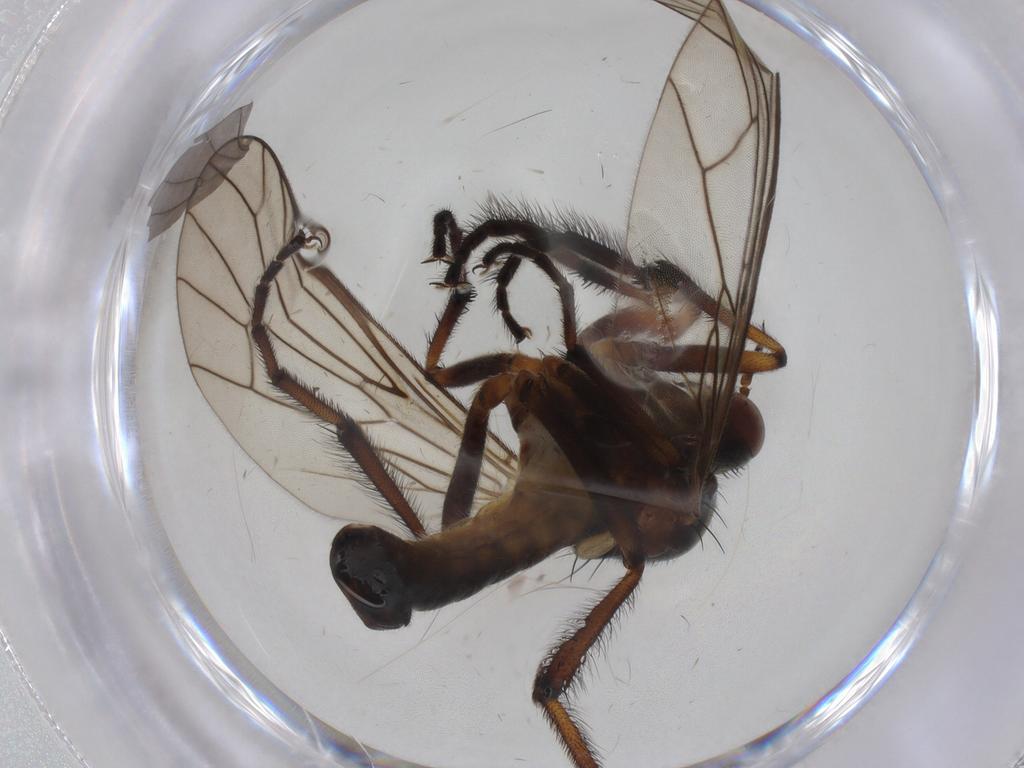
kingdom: Animalia
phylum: Arthropoda
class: Insecta
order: Diptera
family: Empididae
